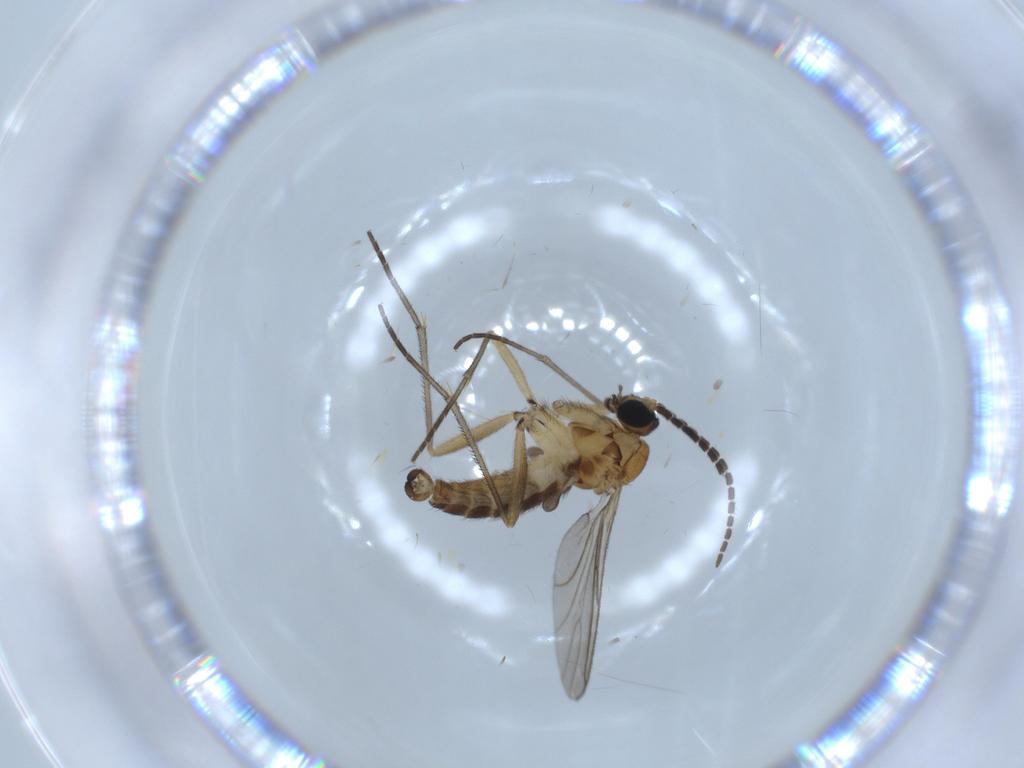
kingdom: Animalia
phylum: Arthropoda
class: Insecta
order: Diptera
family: Sciaridae
